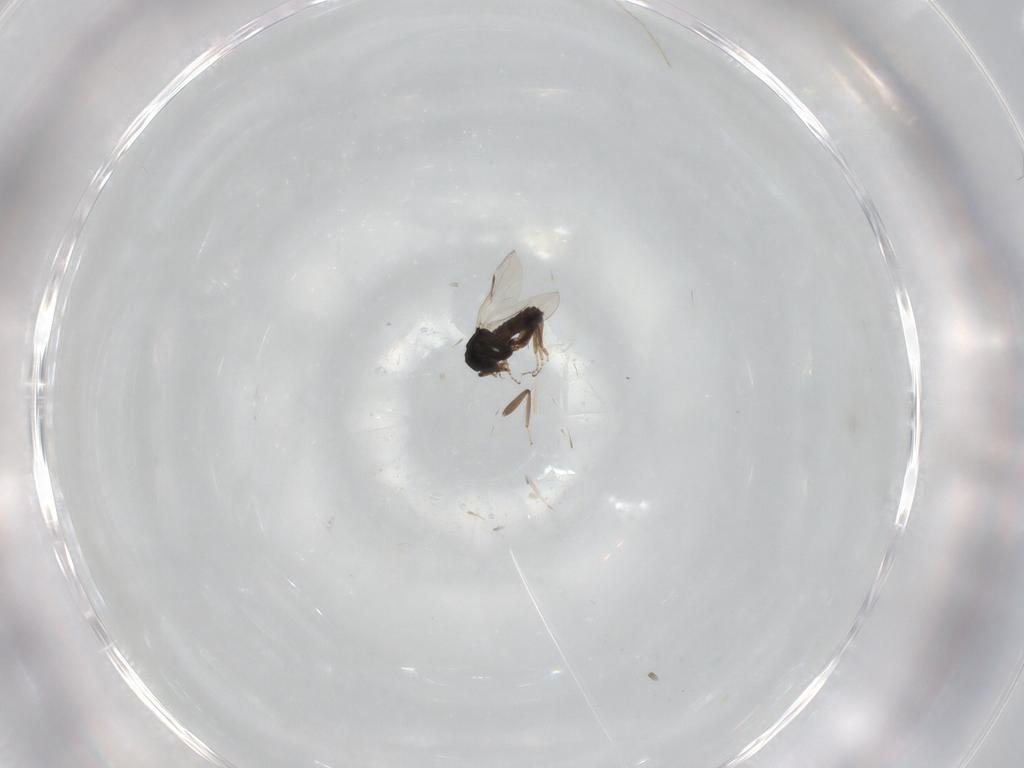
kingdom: Animalia
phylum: Arthropoda
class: Insecta
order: Diptera
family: Ceratopogonidae
